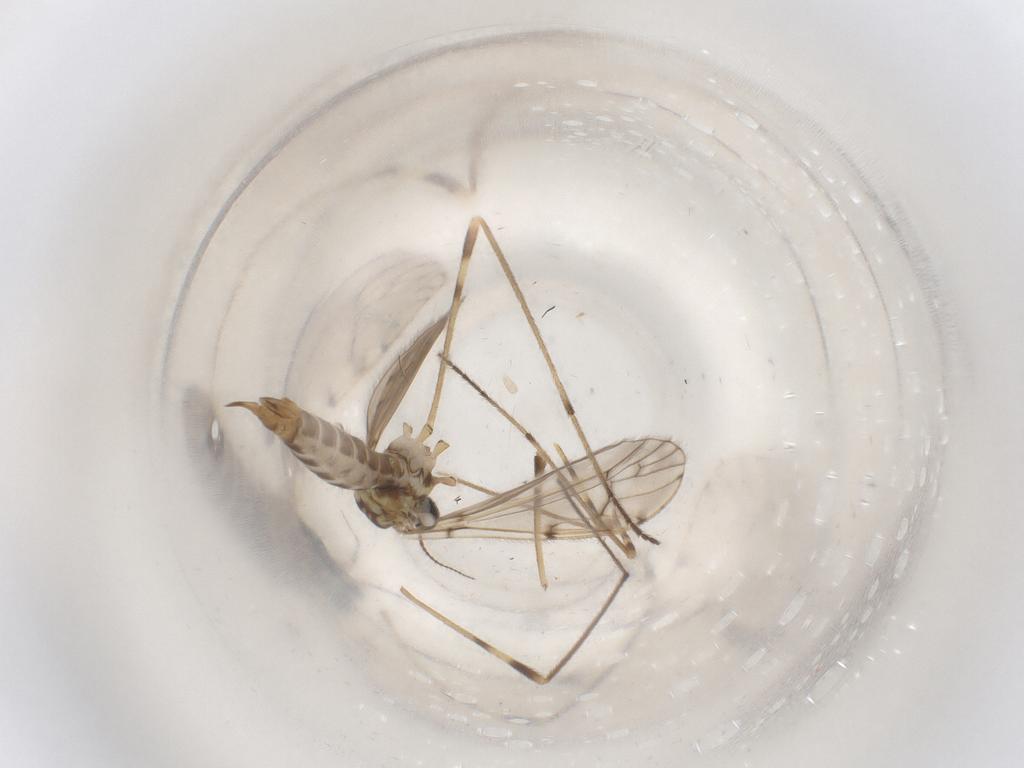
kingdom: Animalia
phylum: Arthropoda
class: Insecta
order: Diptera
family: Limoniidae
